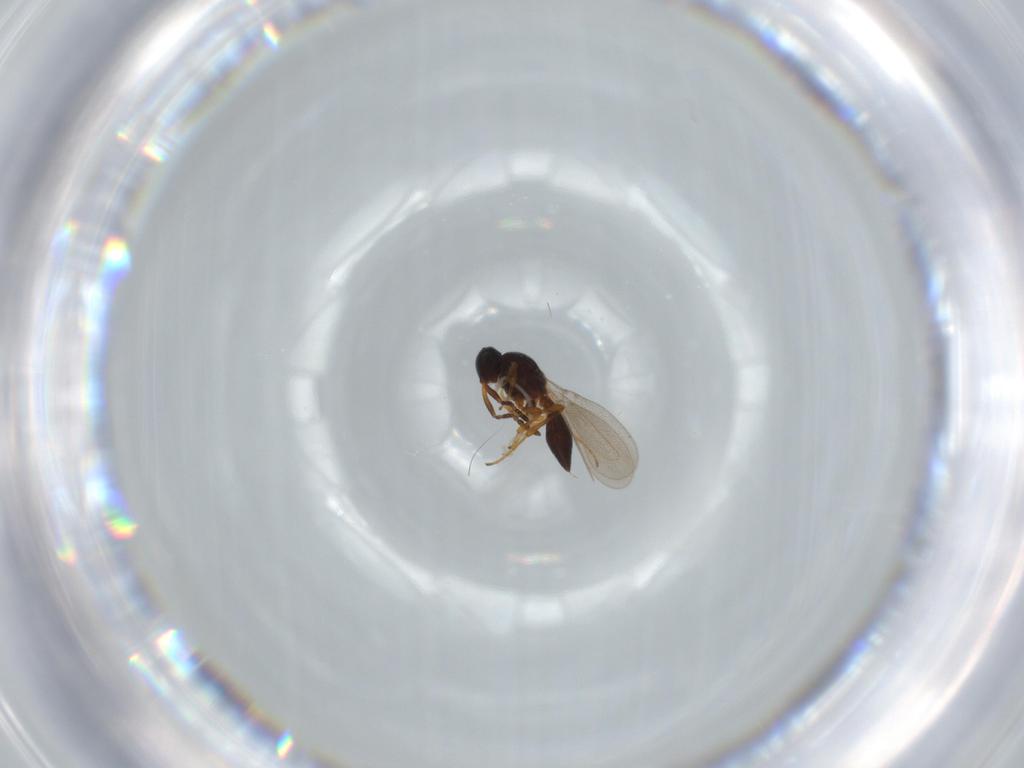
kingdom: Animalia
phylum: Arthropoda
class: Insecta
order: Hymenoptera
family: Platygastridae
